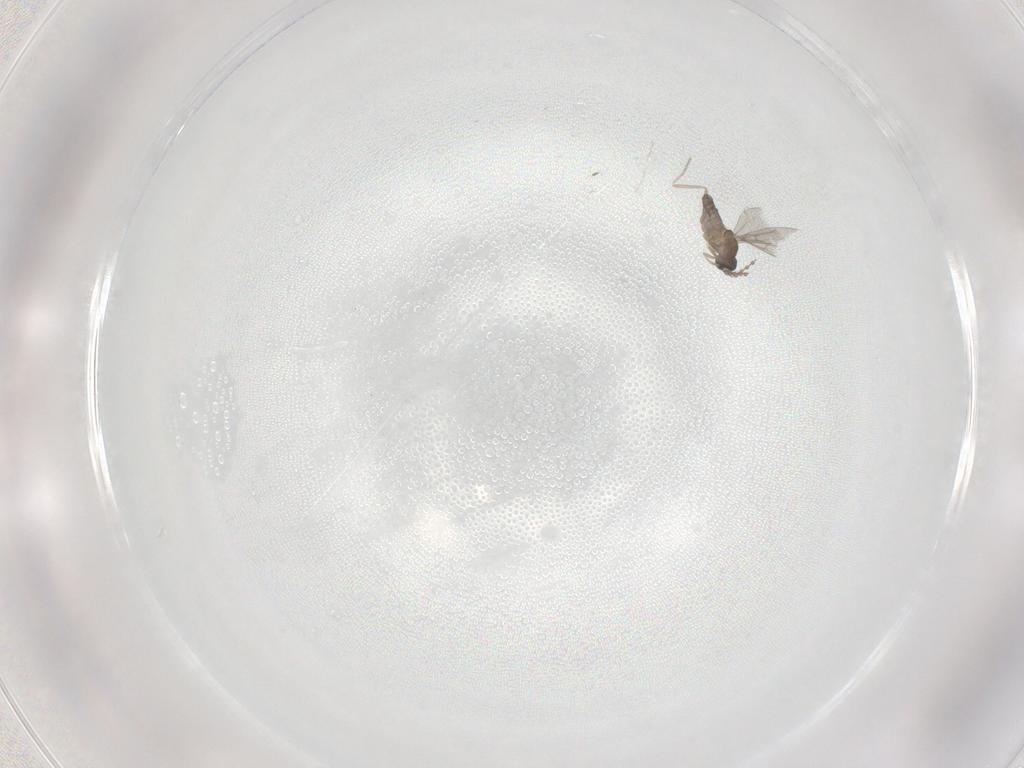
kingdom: Animalia
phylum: Arthropoda
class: Insecta
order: Diptera
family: Cecidomyiidae
